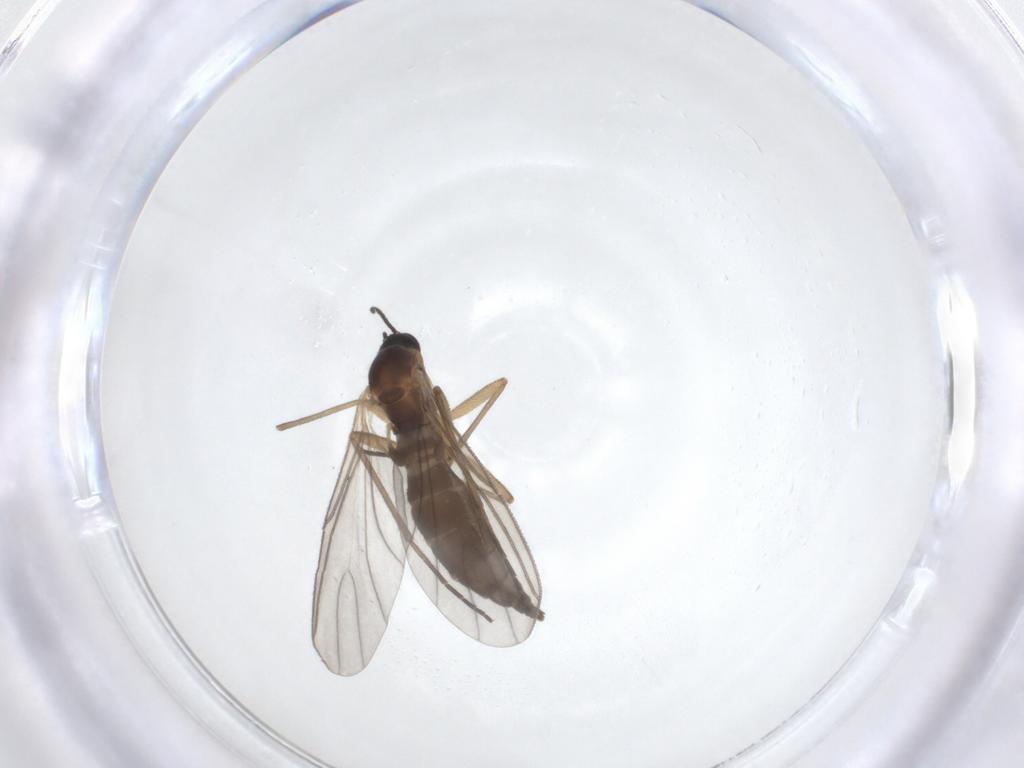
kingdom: Animalia
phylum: Arthropoda
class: Insecta
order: Diptera
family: Sciaridae
